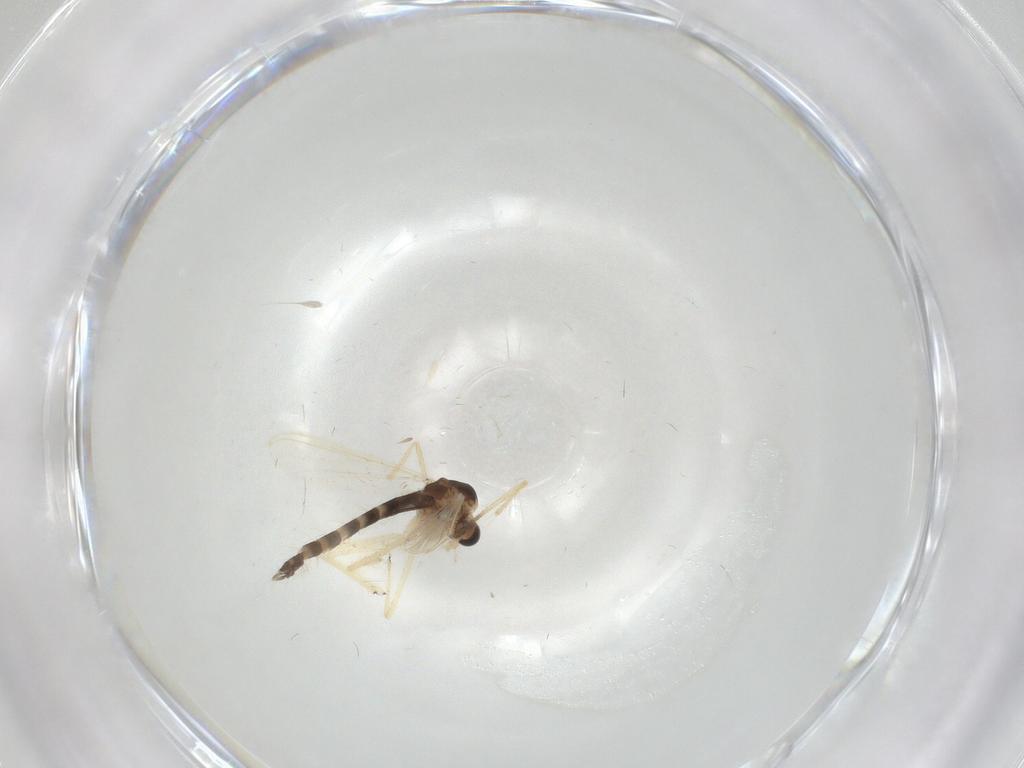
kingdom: Animalia
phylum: Arthropoda
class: Insecta
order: Diptera
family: Chironomidae
